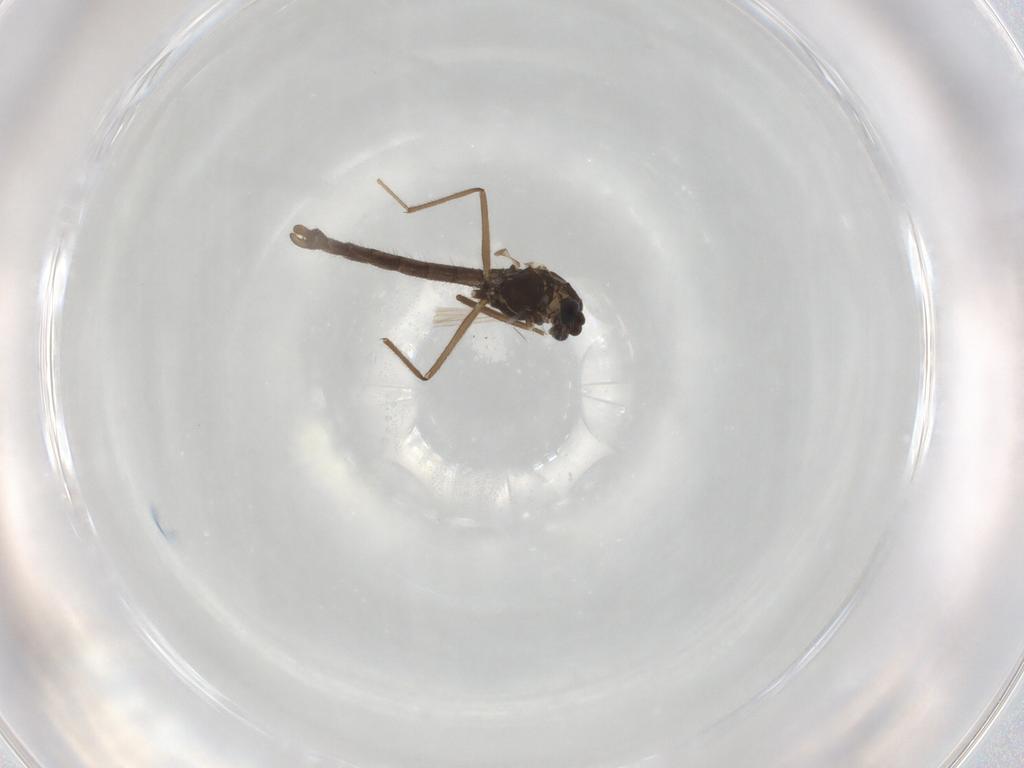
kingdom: Animalia
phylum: Arthropoda
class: Insecta
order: Diptera
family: Chironomidae
